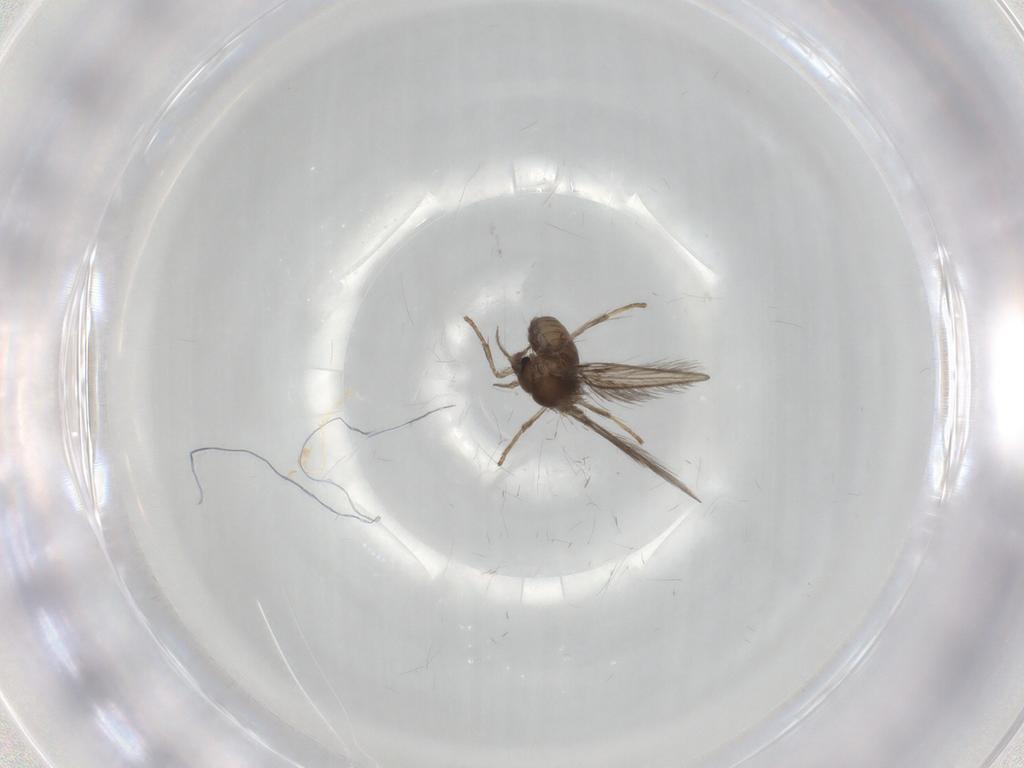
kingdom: Animalia
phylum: Arthropoda
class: Insecta
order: Diptera
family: Psychodidae
